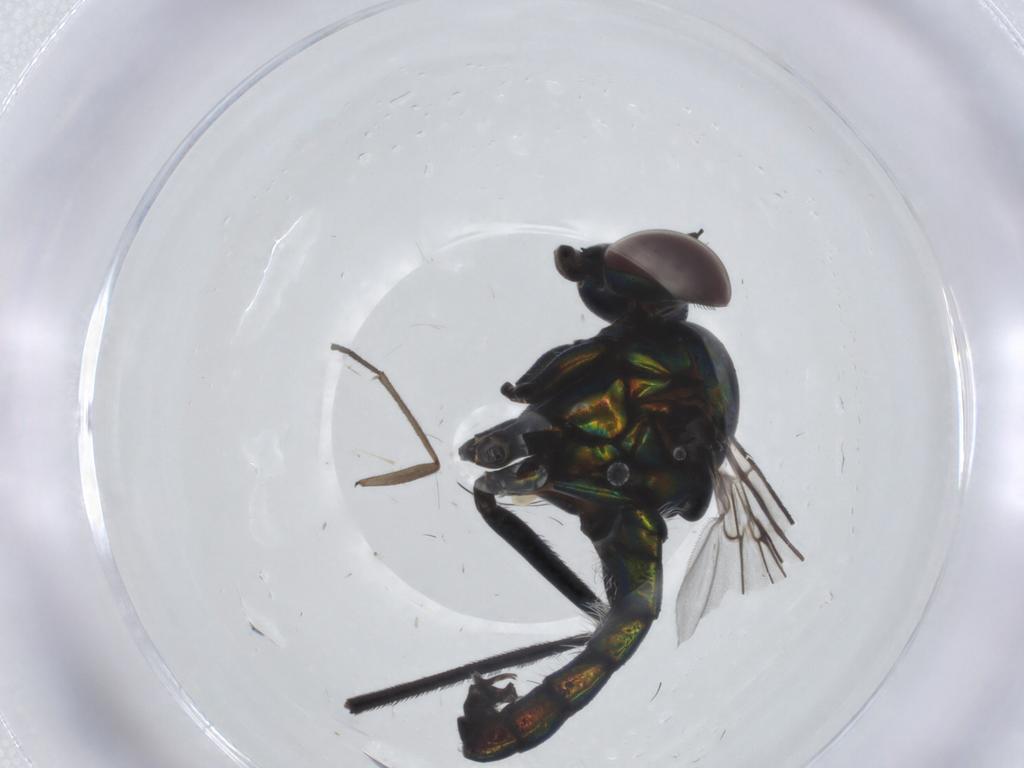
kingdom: Animalia
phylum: Arthropoda
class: Insecta
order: Diptera
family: Dolichopodidae
